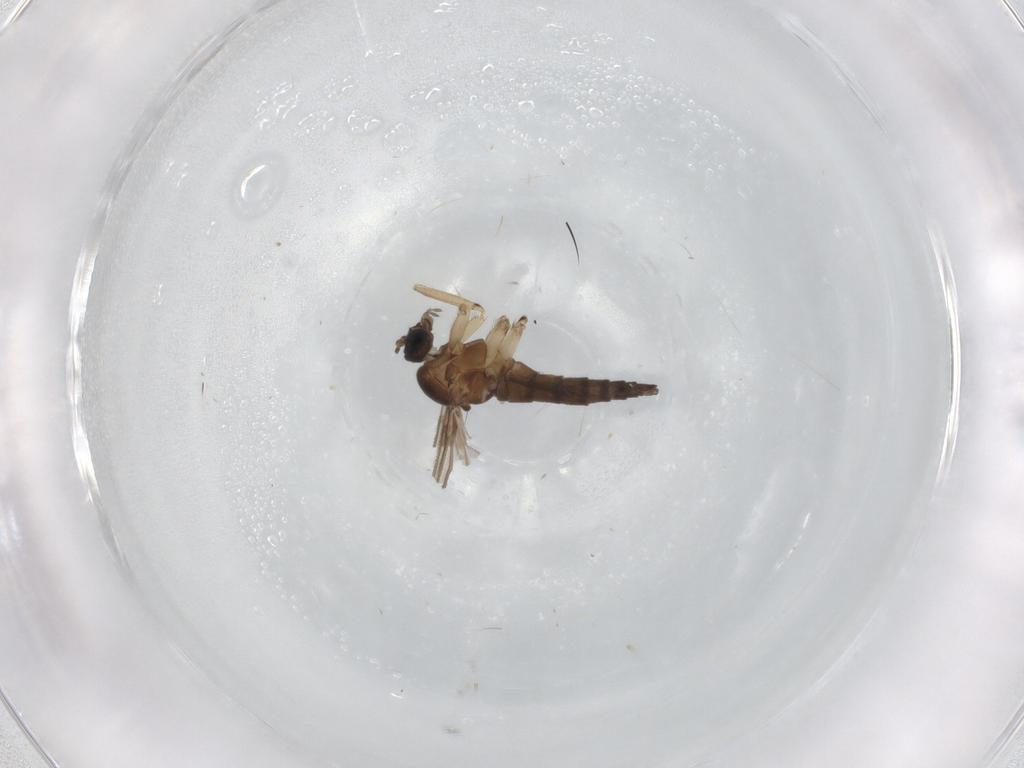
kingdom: Animalia
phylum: Arthropoda
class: Insecta
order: Diptera
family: Sciaridae
